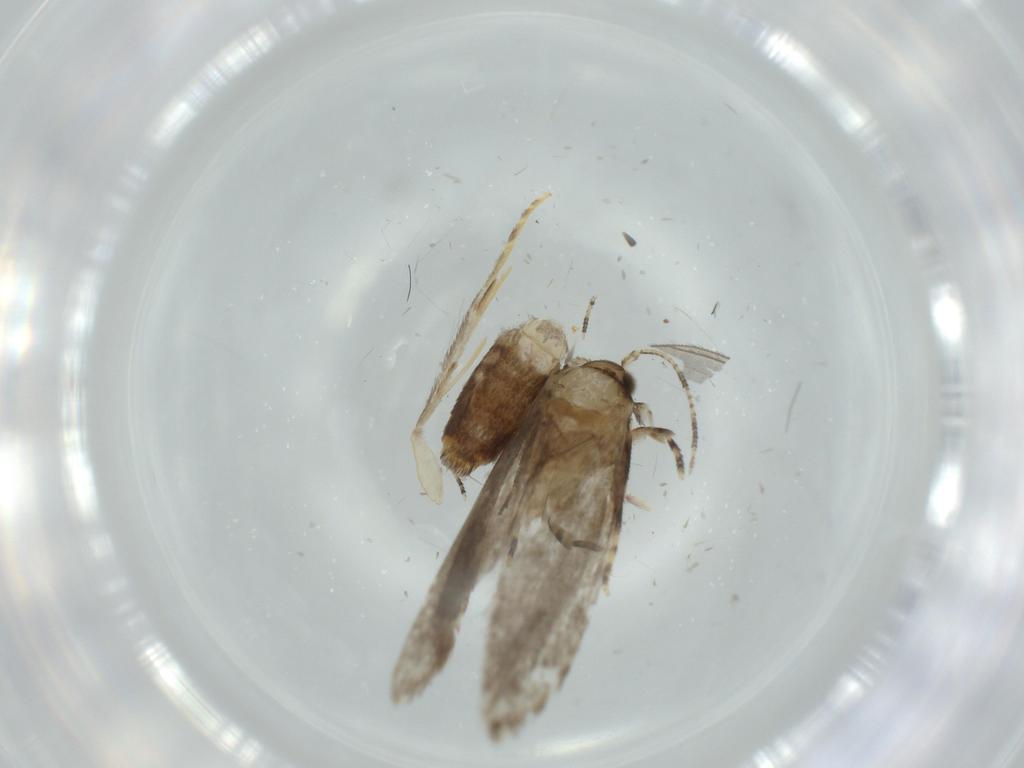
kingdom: Animalia
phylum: Arthropoda
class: Insecta
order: Lepidoptera
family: Tineidae
